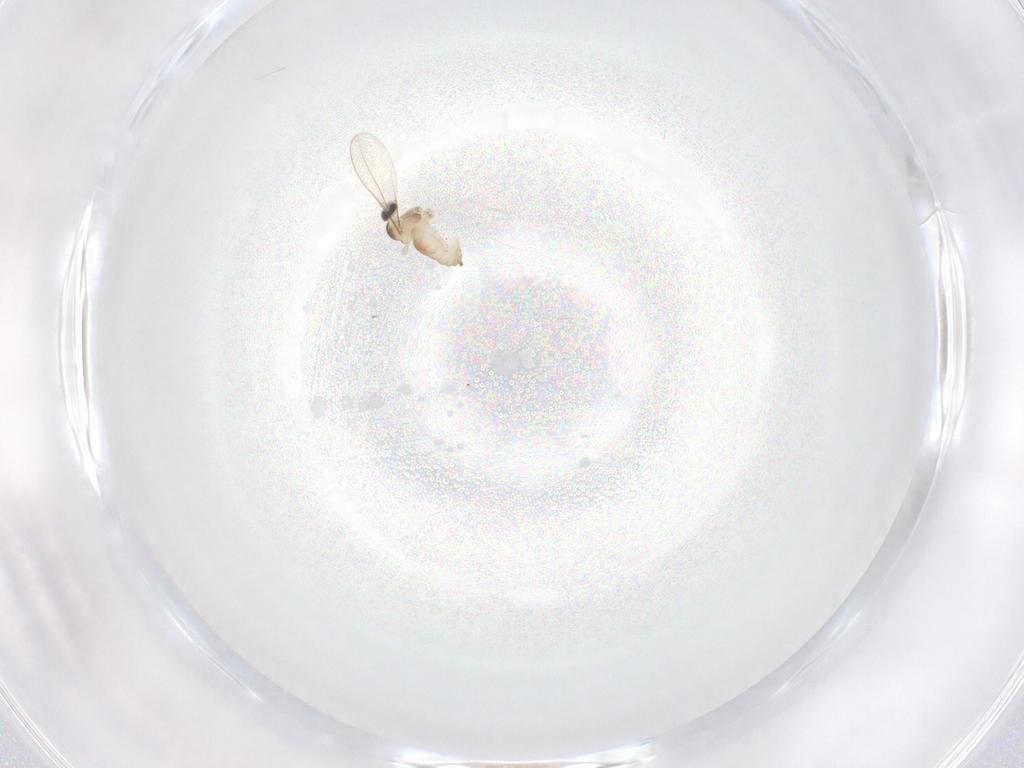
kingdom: Animalia
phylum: Arthropoda
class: Insecta
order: Diptera
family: Cecidomyiidae
